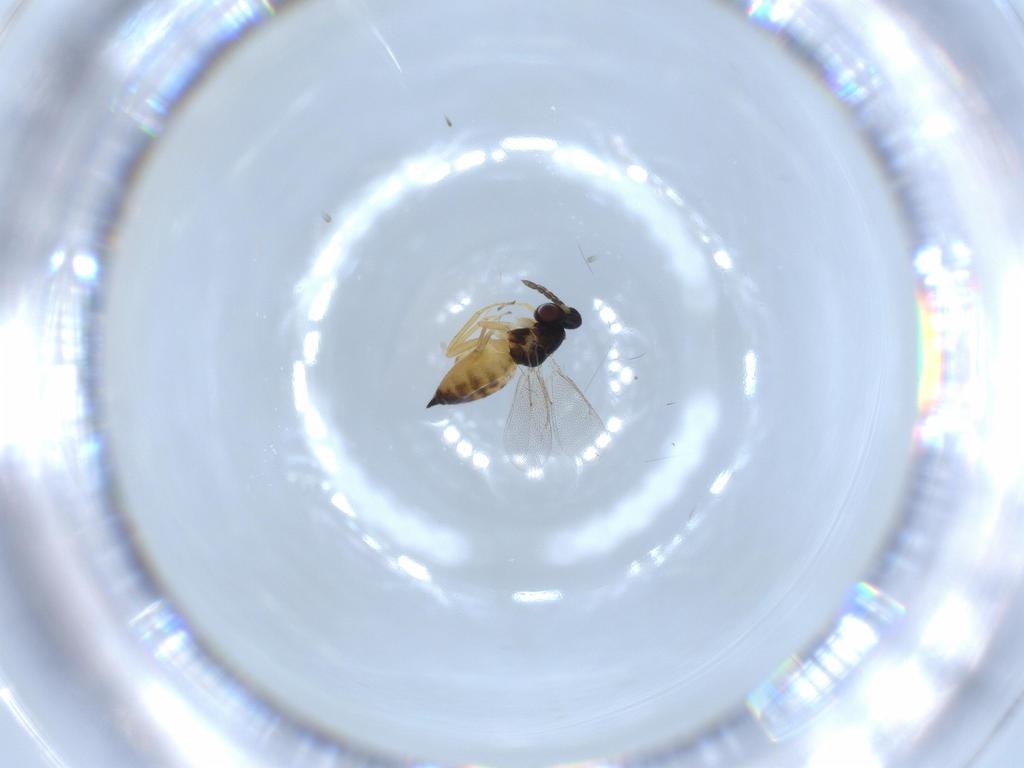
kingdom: Animalia
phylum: Arthropoda
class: Insecta
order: Hymenoptera
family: Eulophidae
